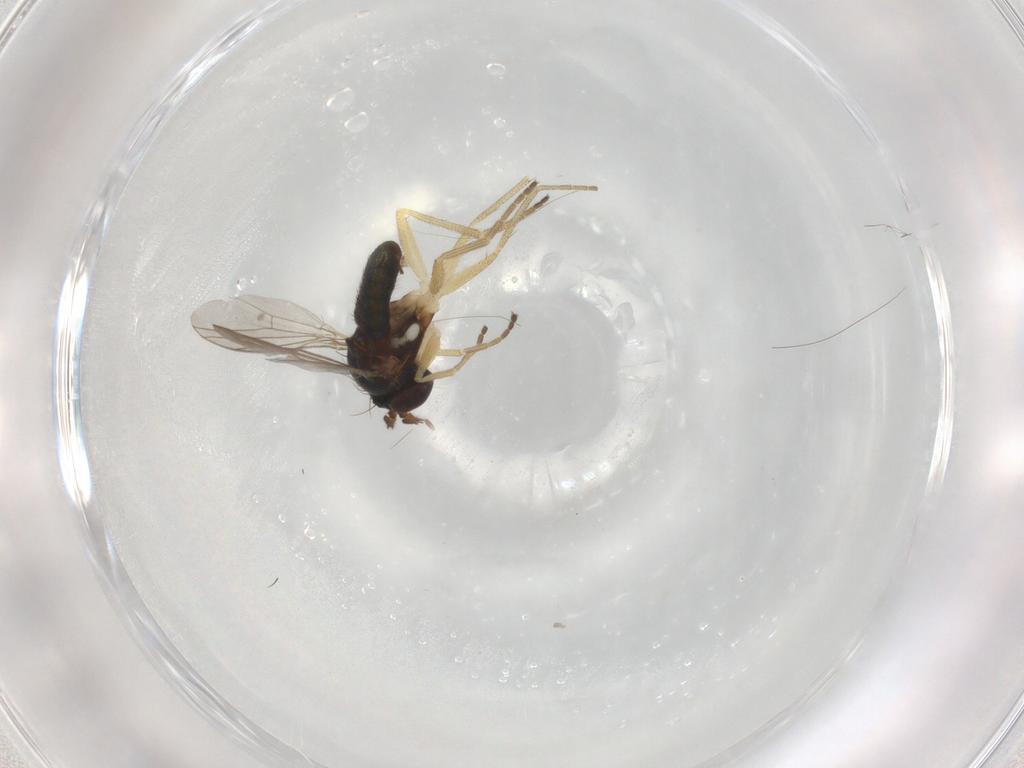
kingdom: Animalia
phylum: Arthropoda
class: Insecta
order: Diptera
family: Dolichopodidae
